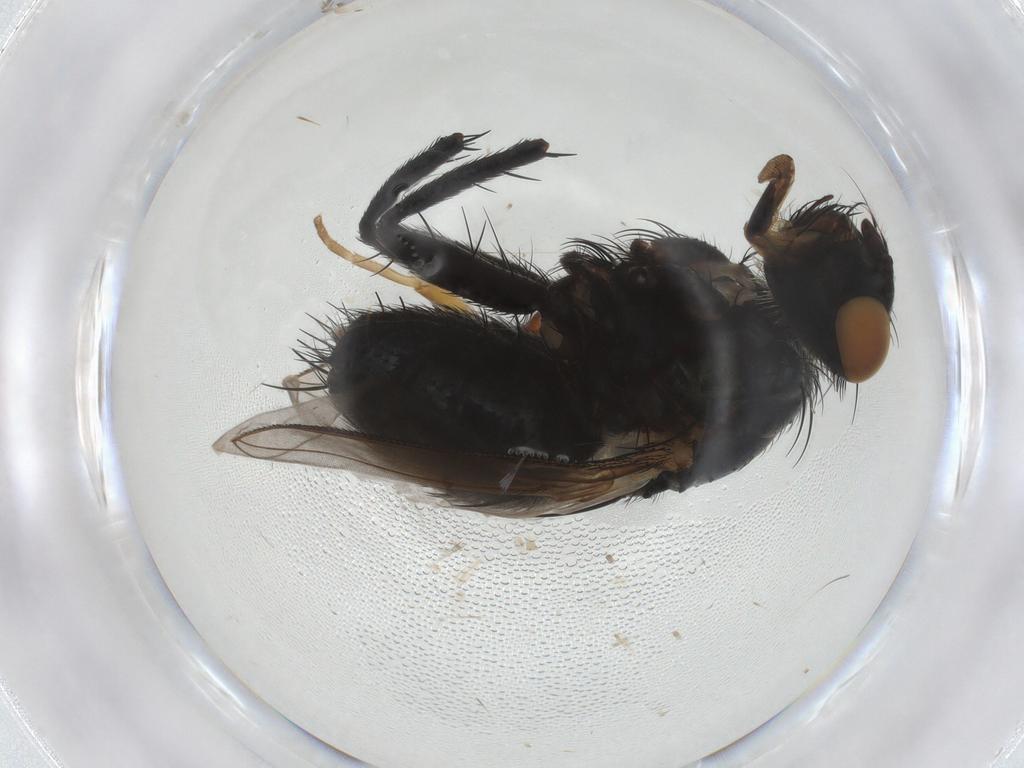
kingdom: Animalia
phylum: Arthropoda
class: Insecta
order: Diptera
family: Sarcophagidae
